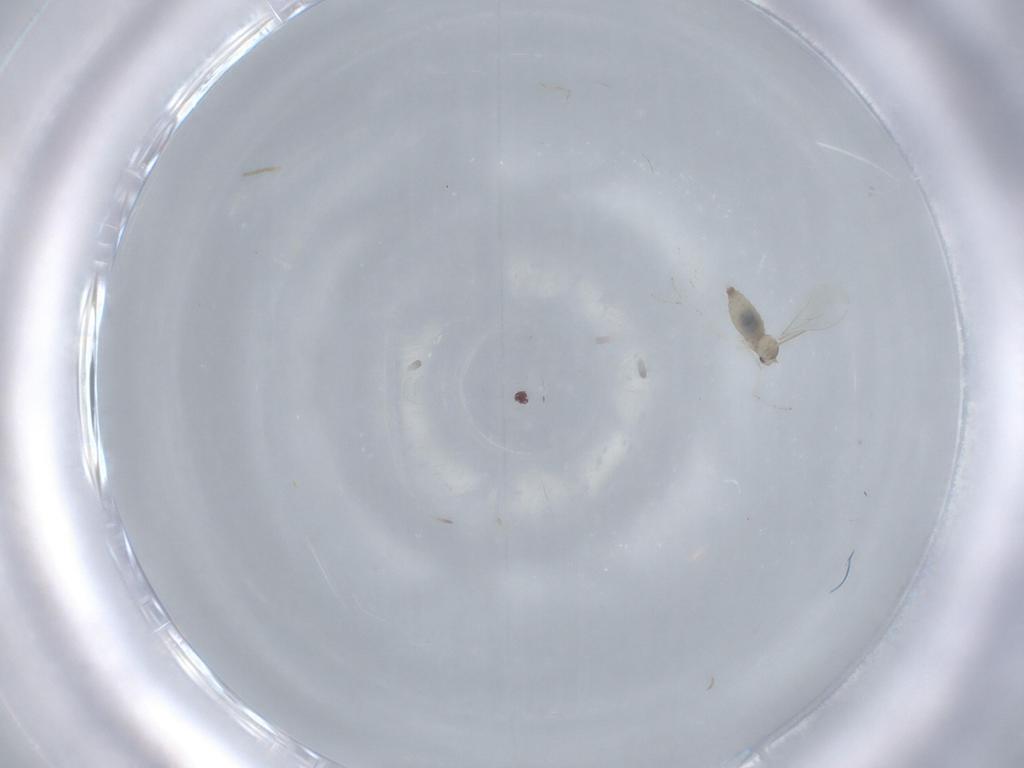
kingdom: Animalia
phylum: Arthropoda
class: Insecta
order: Diptera
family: Cecidomyiidae
